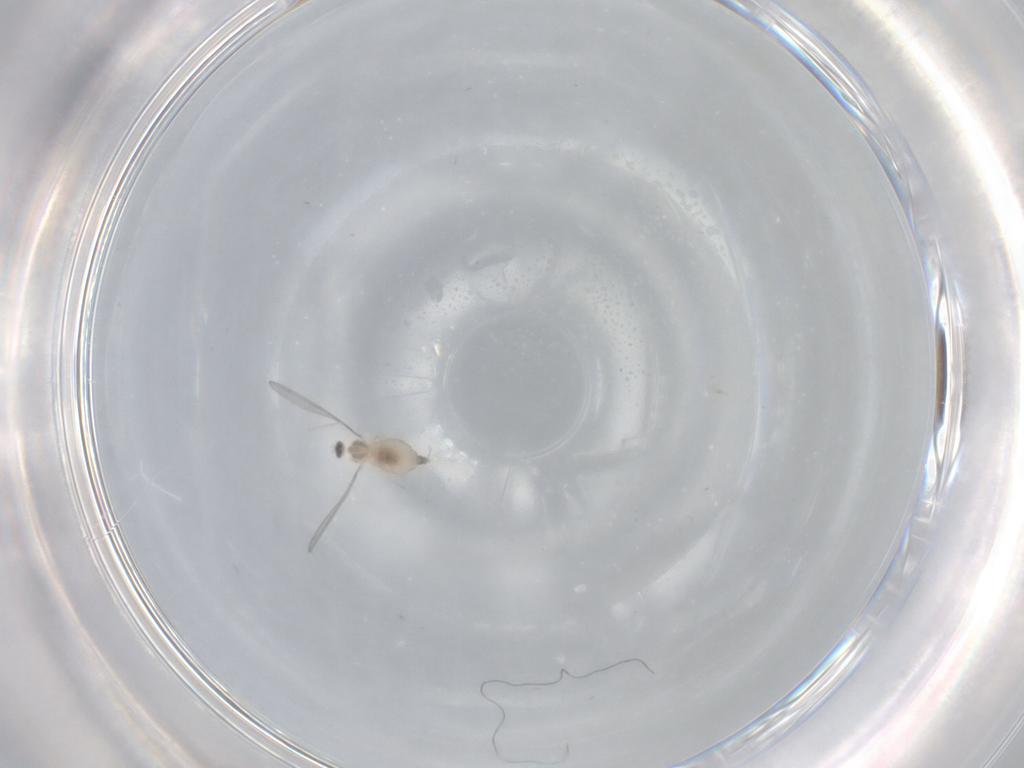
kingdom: Animalia
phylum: Arthropoda
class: Insecta
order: Diptera
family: Cecidomyiidae
